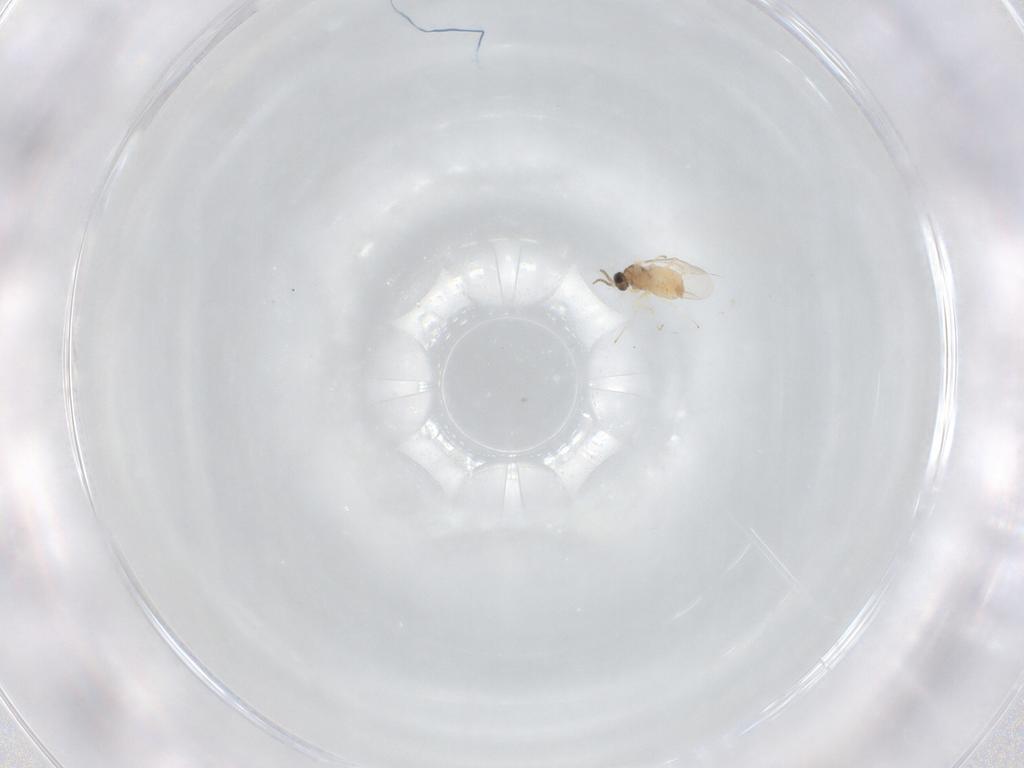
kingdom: Animalia
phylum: Arthropoda
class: Insecta
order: Diptera
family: Cecidomyiidae
